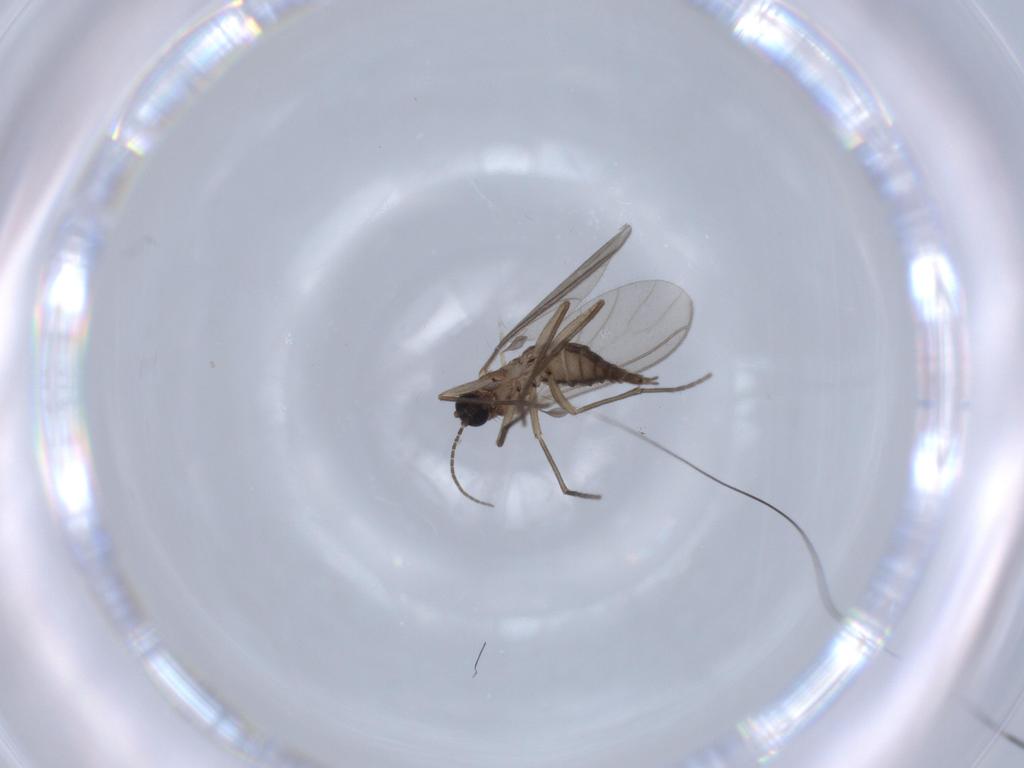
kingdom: Animalia
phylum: Arthropoda
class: Insecta
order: Diptera
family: Sciaridae
